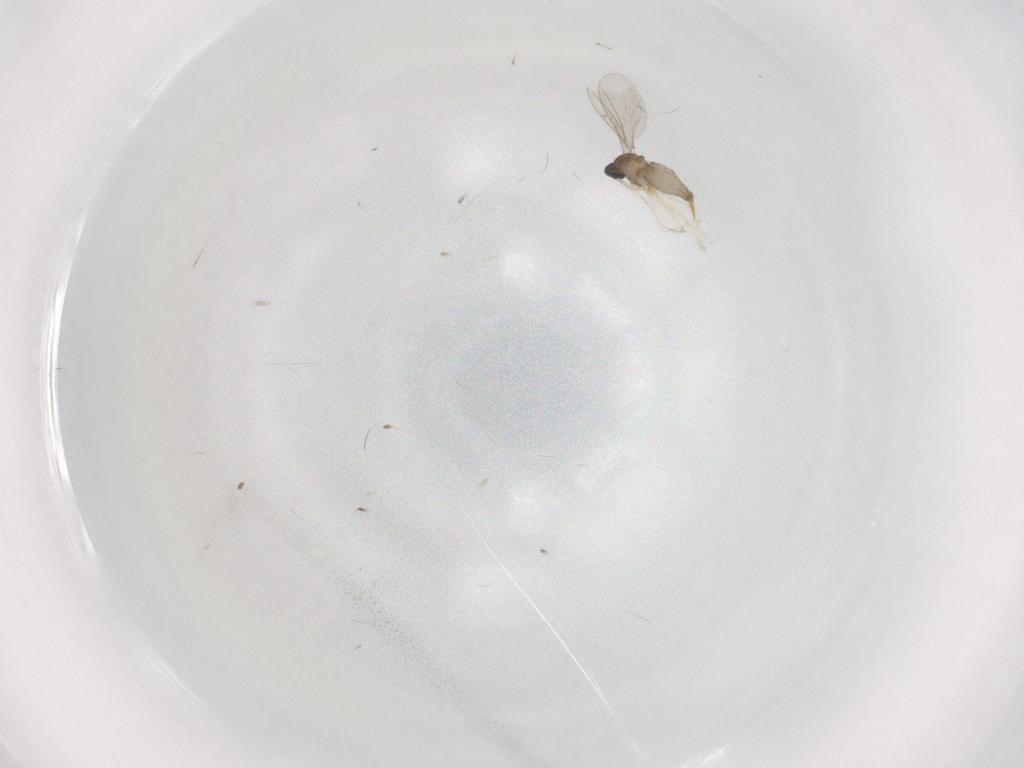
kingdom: Animalia
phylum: Arthropoda
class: Insecta
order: Diptera
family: Cecidomyiidae
